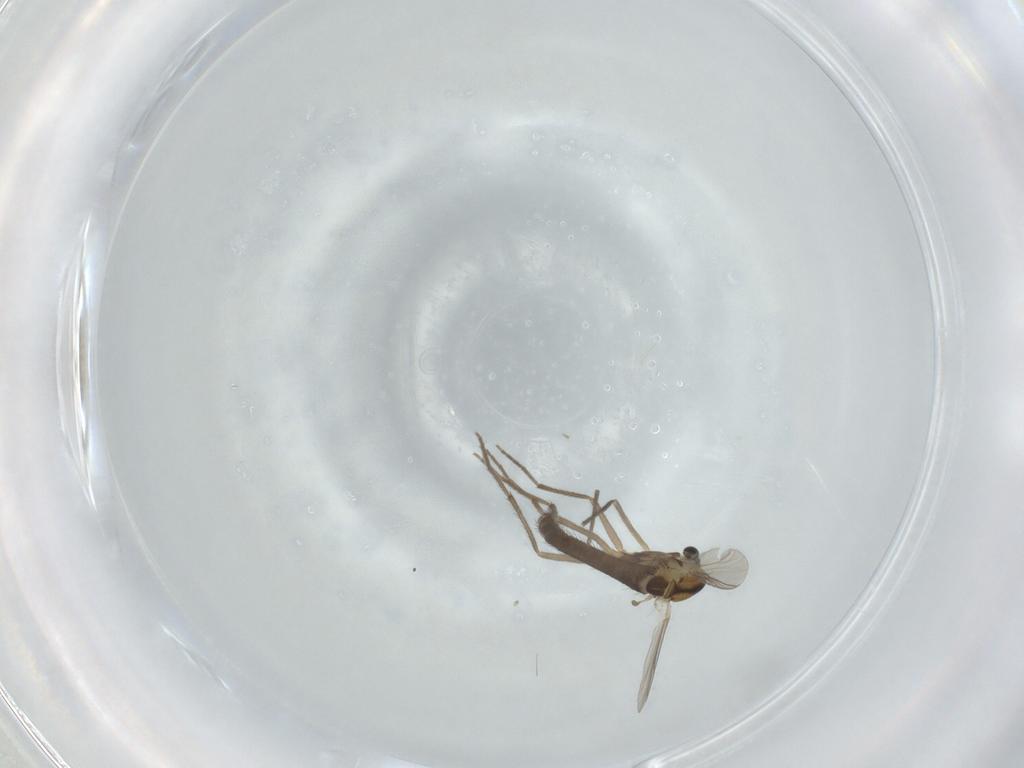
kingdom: Animalia
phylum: Arthropoda
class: Insecta
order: Diptera
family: Chironomidae
